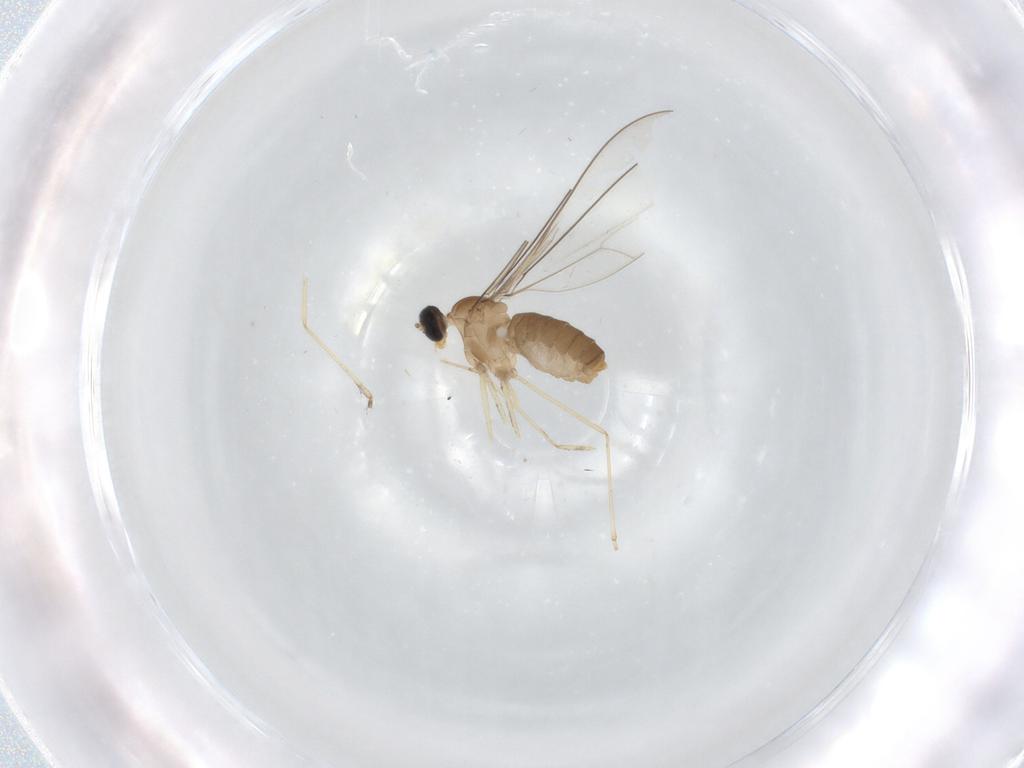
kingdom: Animalia
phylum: Arthropoda
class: Insecta
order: Diptera
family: Cecidomyiidae
